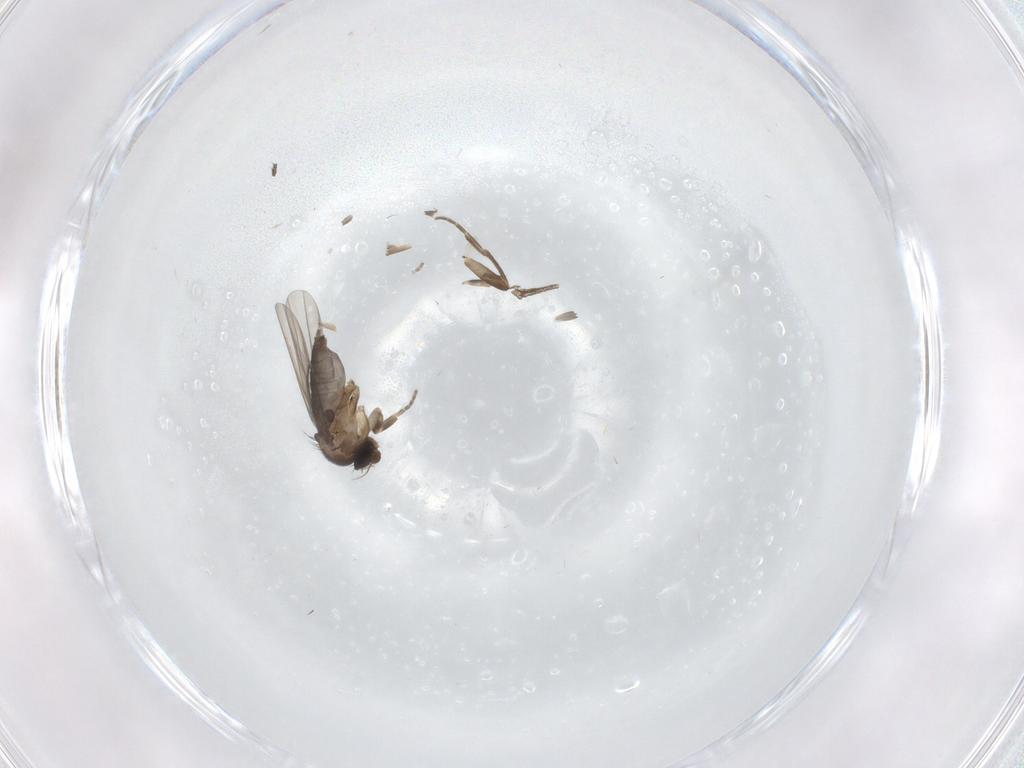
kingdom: Animalia
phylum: Arthropoda
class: Insecta
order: Diptera
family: Phoridae
